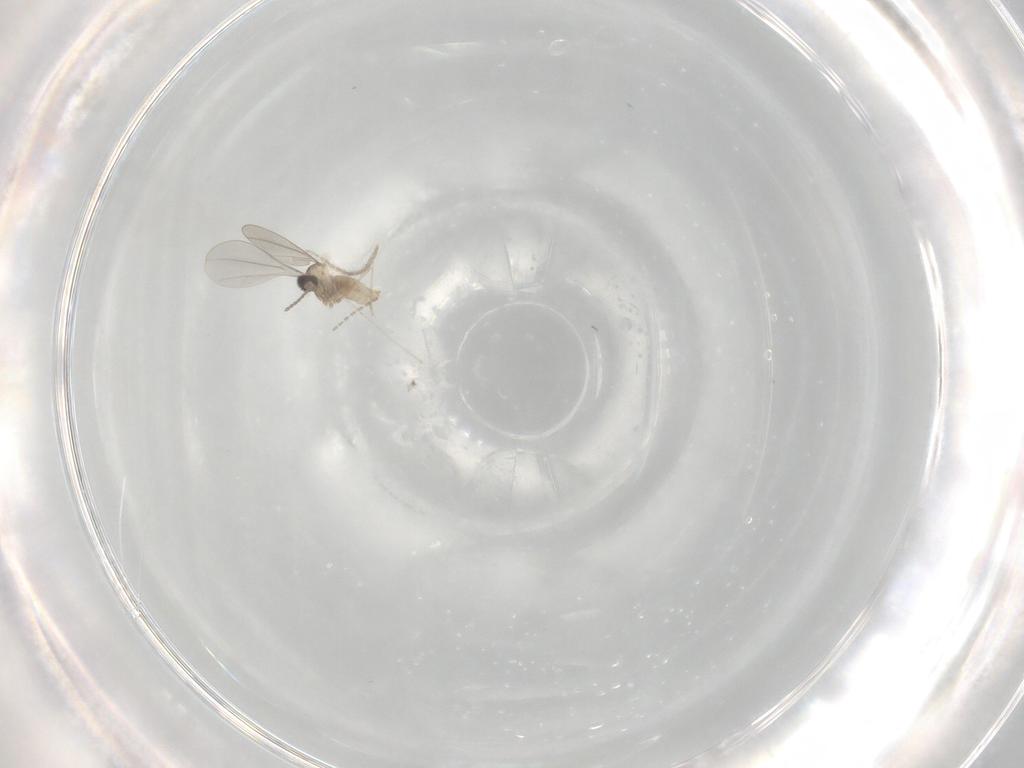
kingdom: Animalia
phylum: Arthropoda
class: Insecta
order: Diptera
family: Psychodidae
